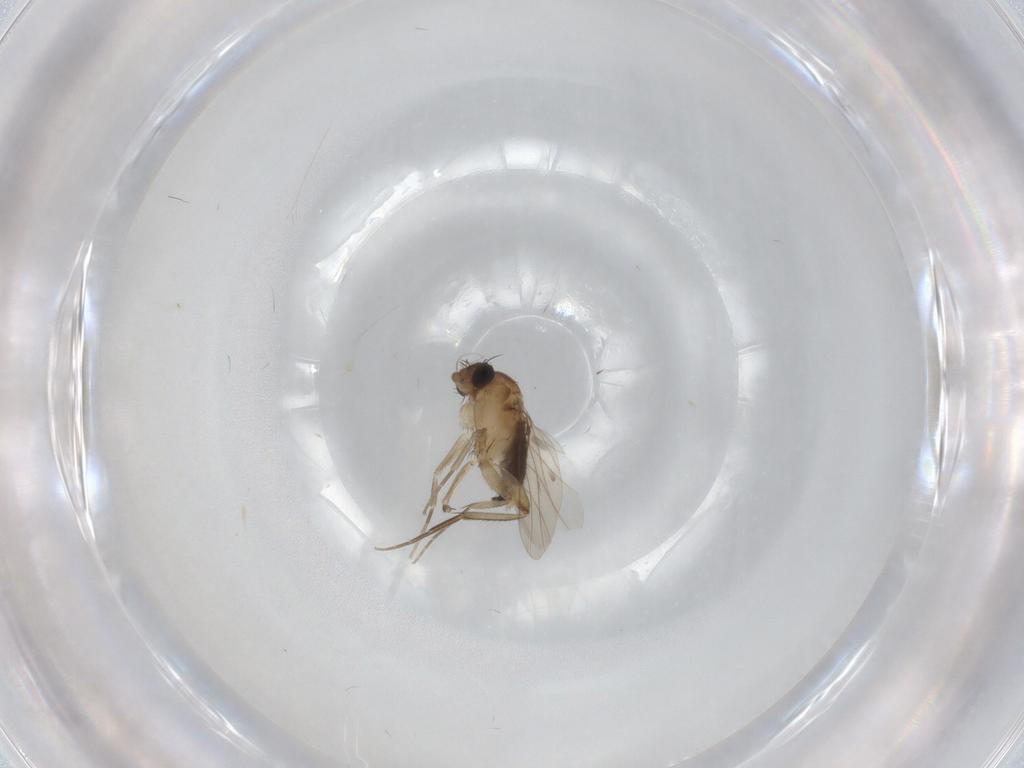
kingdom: Animalia
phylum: Arthropoda
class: Insecta
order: Diptera
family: Phoridae
